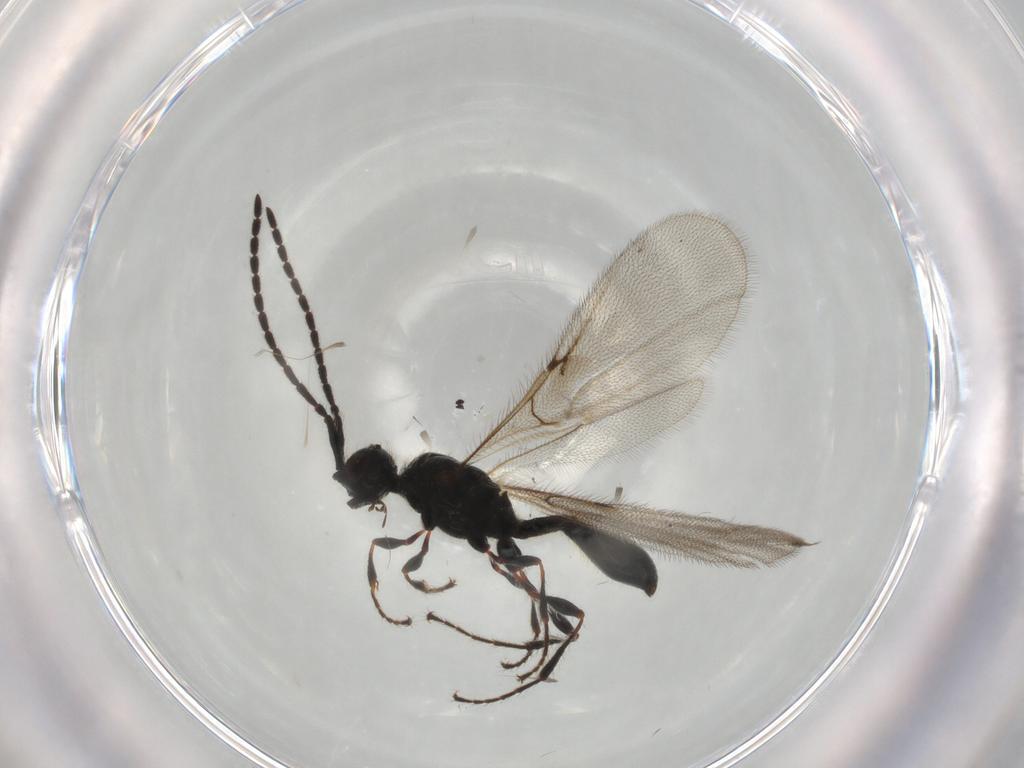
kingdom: Animalia
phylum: Arthropoda
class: Insecta
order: Hymenoptera
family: Diapriidae
